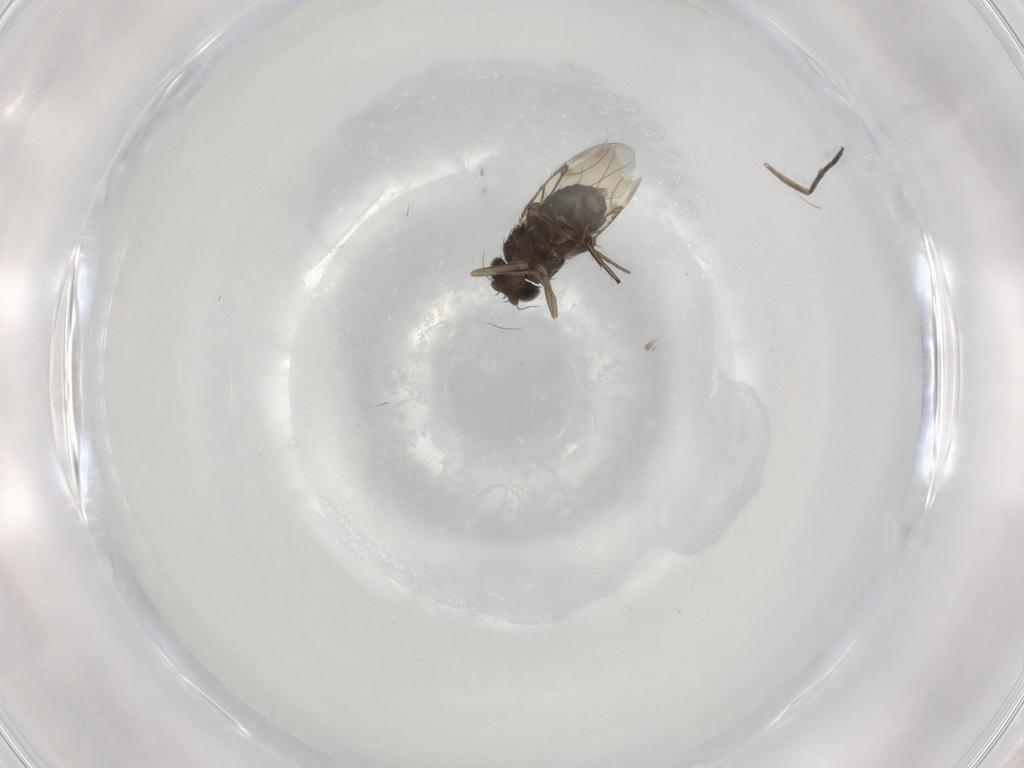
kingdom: Animalia
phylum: Arthropoda
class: Insecta
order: Diptera
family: Phoridae
